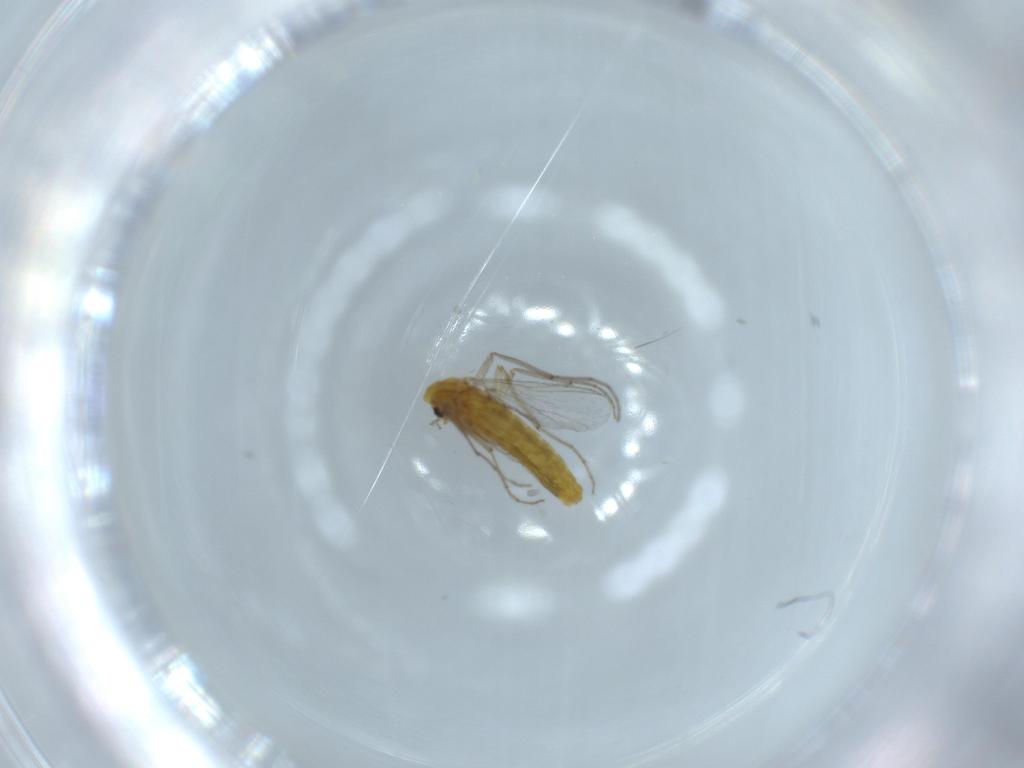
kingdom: Animalia
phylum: Arthropoda
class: Insecta
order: Diptera
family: Chironomidae
